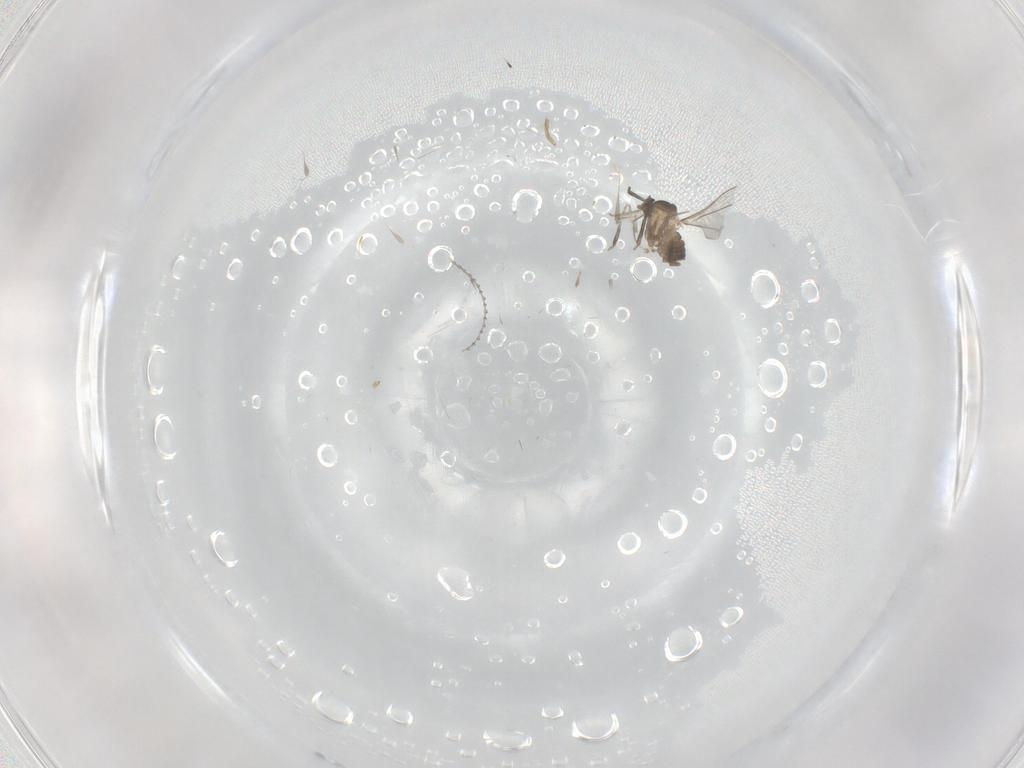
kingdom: Animalia
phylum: Arthropoda
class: Insecta
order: Diptera
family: Cecidomyiidae
